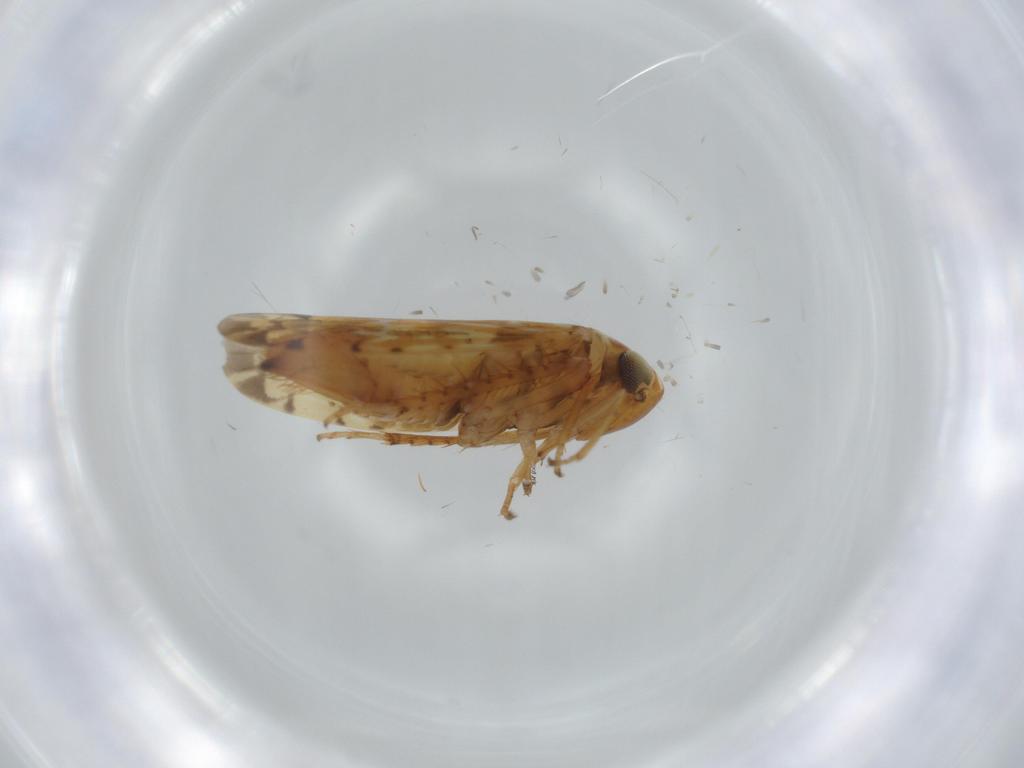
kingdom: Animalia
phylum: Arthropoda
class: Insecta
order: Hemiptera
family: Cicadellidae
